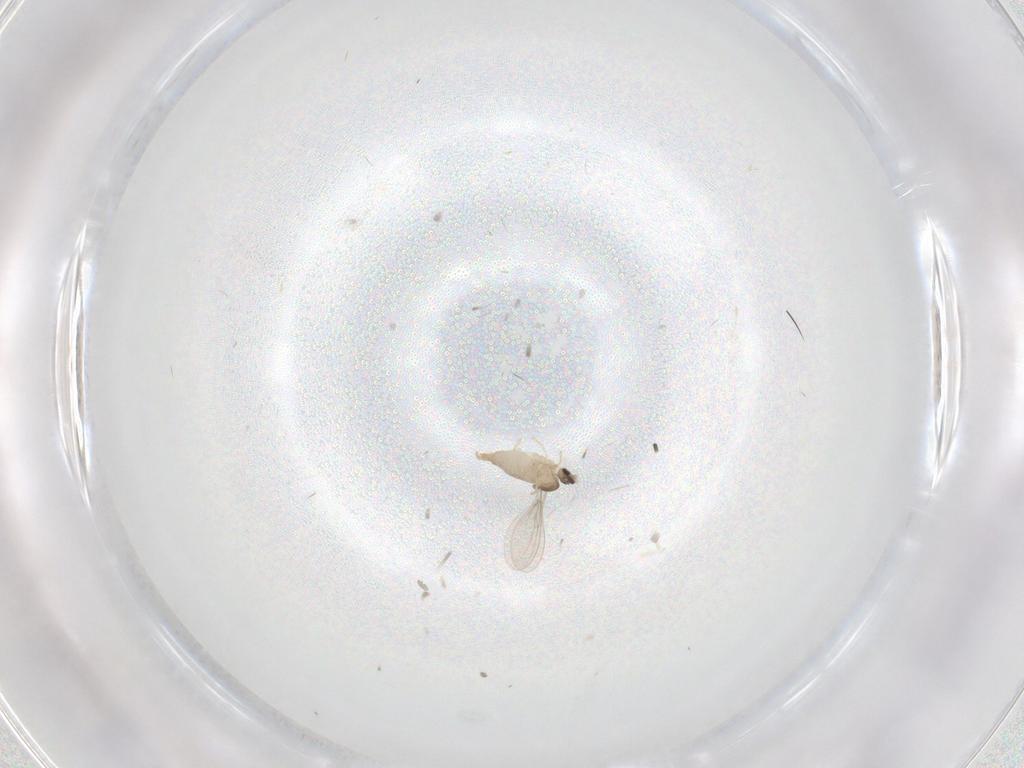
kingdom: Animalia
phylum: Arthropoda
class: Insecta
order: Diptera
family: Cecidomyiidae
